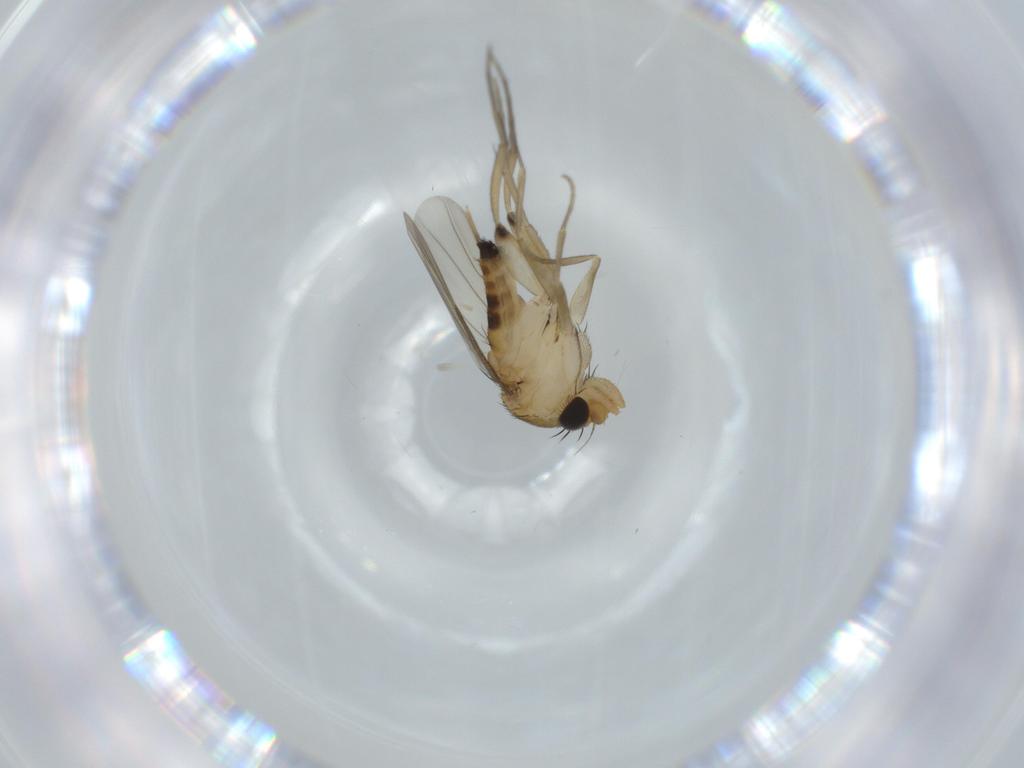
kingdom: Animalia
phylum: Arthropoda
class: Insecta
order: Diptera
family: Phoridae
